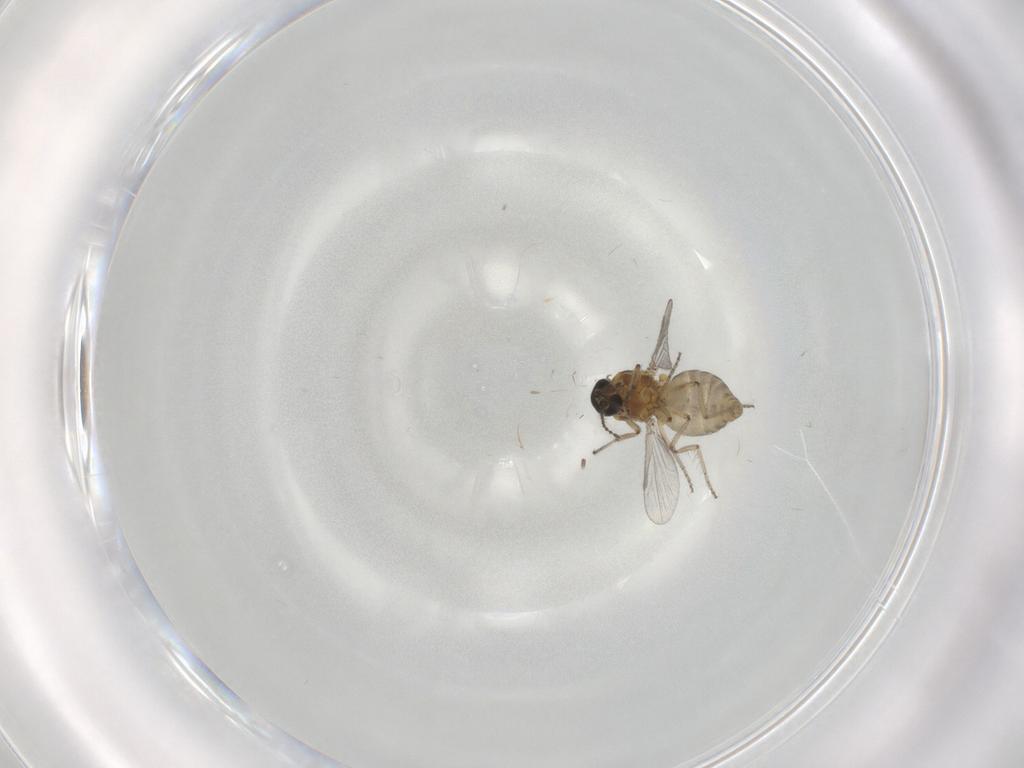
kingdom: Animalia
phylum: Arthropoda
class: Insecta
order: Diptera
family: Ceratopogonidae
